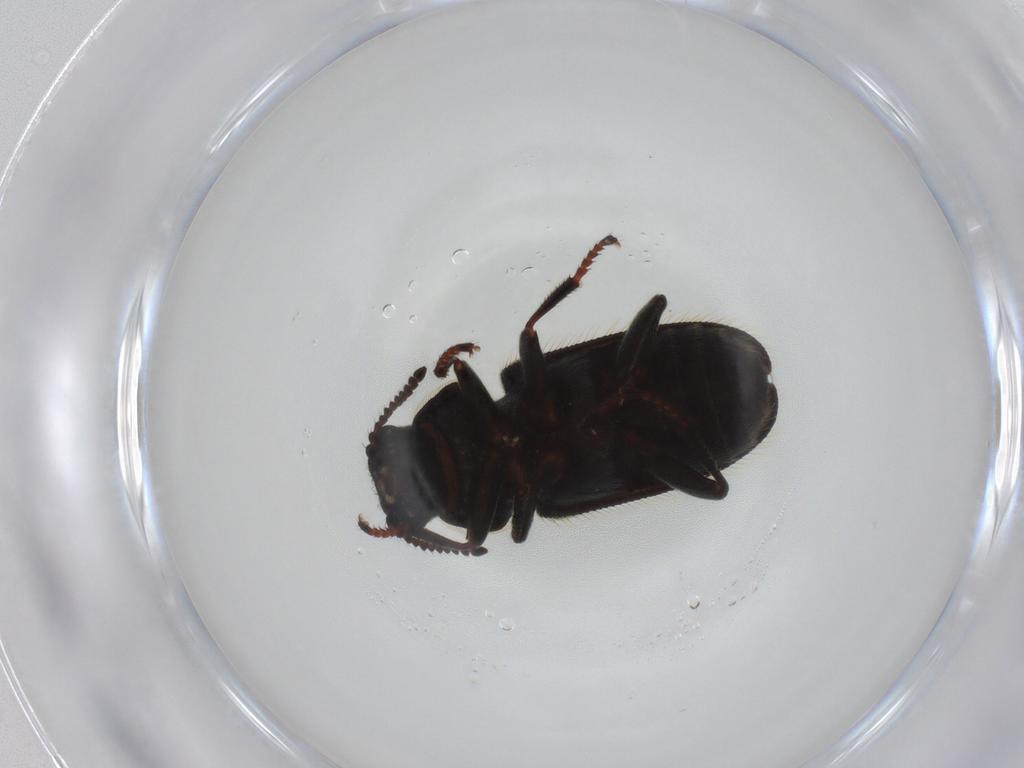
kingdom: Animalia
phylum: Arthropoda
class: Insecta
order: Coleoptera
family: Dasytidae
